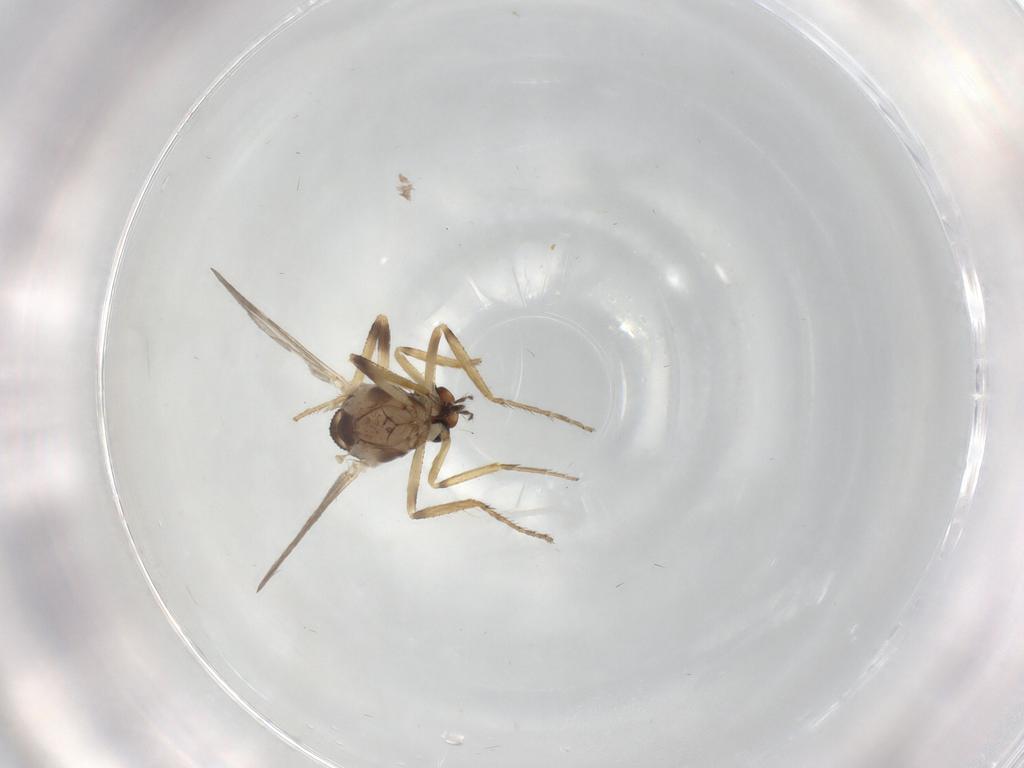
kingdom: Animalia
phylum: Arthropoda
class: Insecta
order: Diptera
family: Ceratopogonidae
